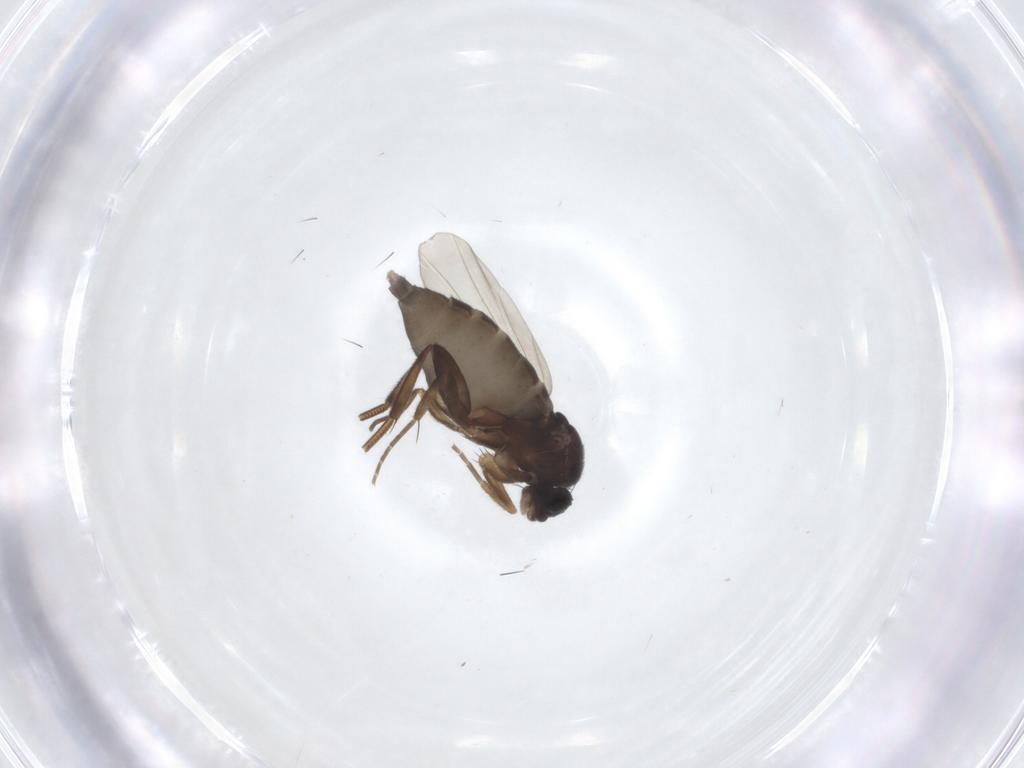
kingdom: Animalia
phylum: Arthropoda
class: Insecta
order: Diptera
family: Phoridae
